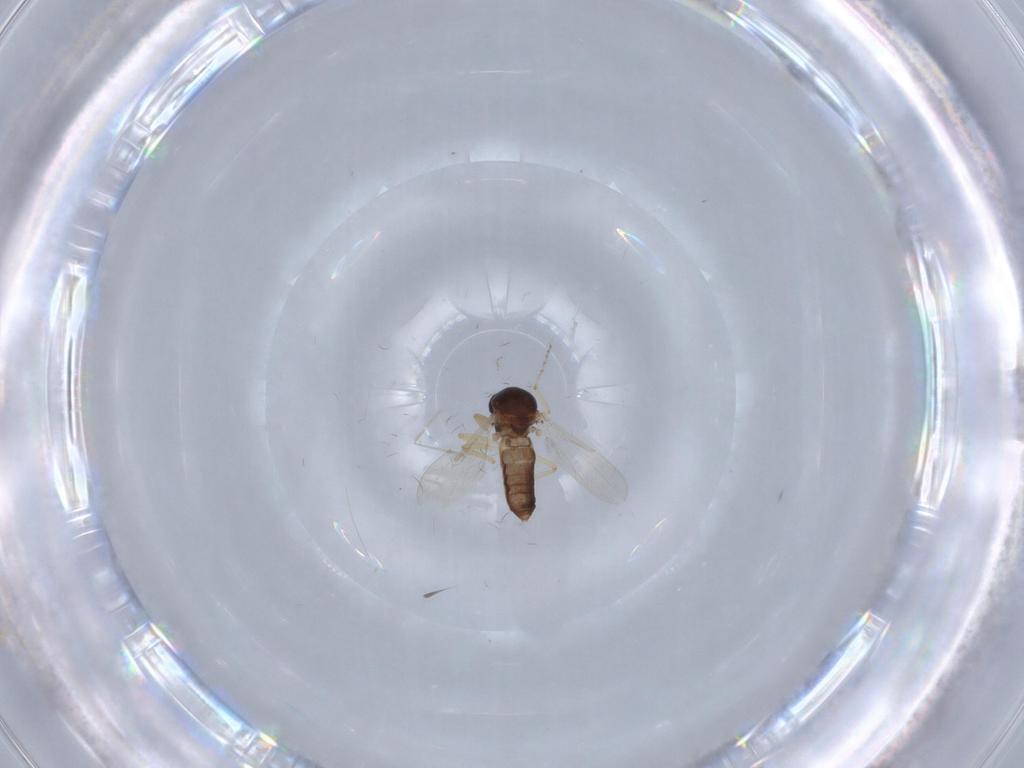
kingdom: Animalia
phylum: Arthropoda
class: Insecta
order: Diptera
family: Ceratopogonidae
